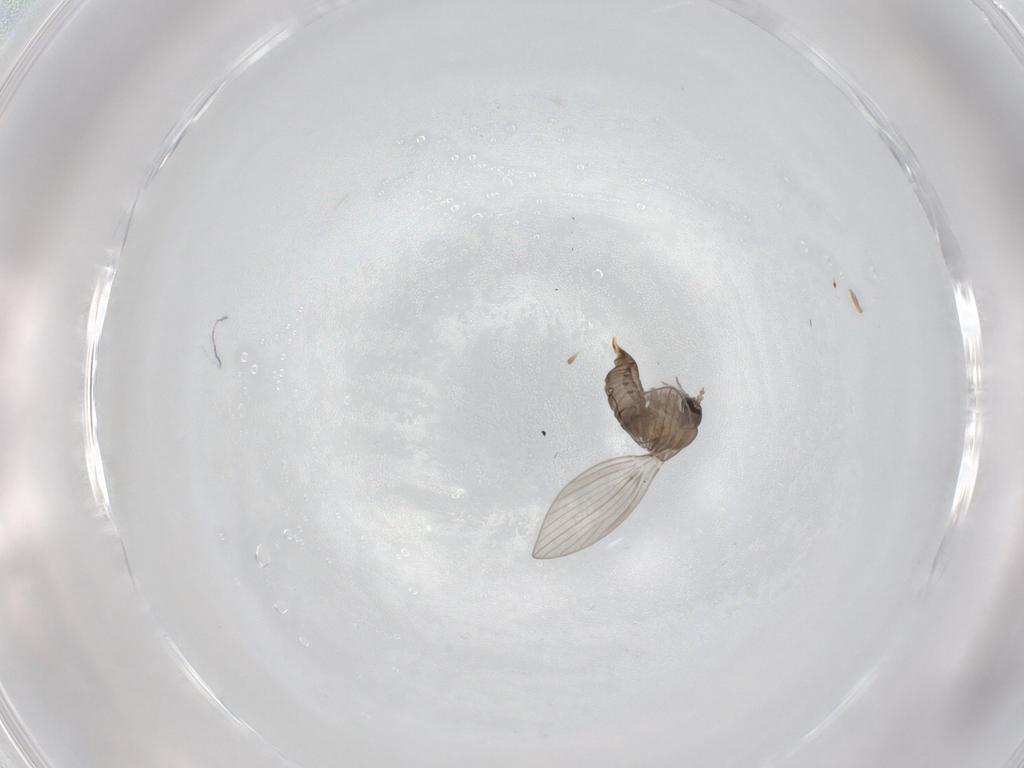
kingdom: Animalia
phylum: Arthropoda
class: Insecta
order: Diptera
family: Psychodidae
